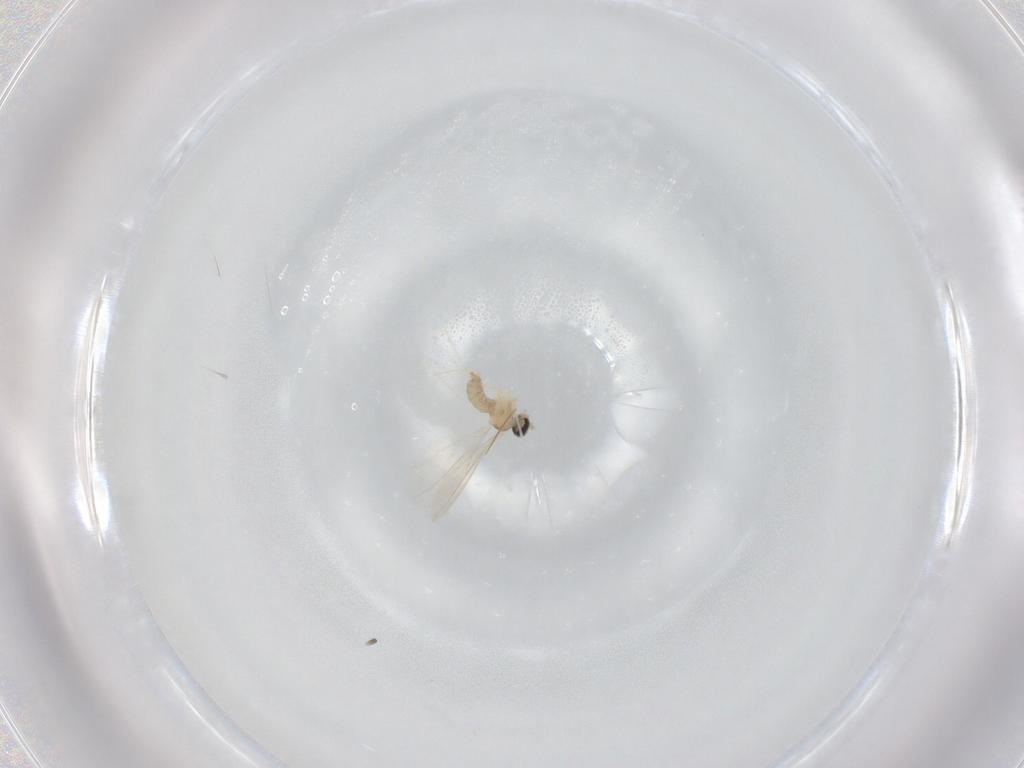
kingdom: Animalia
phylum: Arthropoda
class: Insecta
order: Diptera
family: Cecidomyiidae
